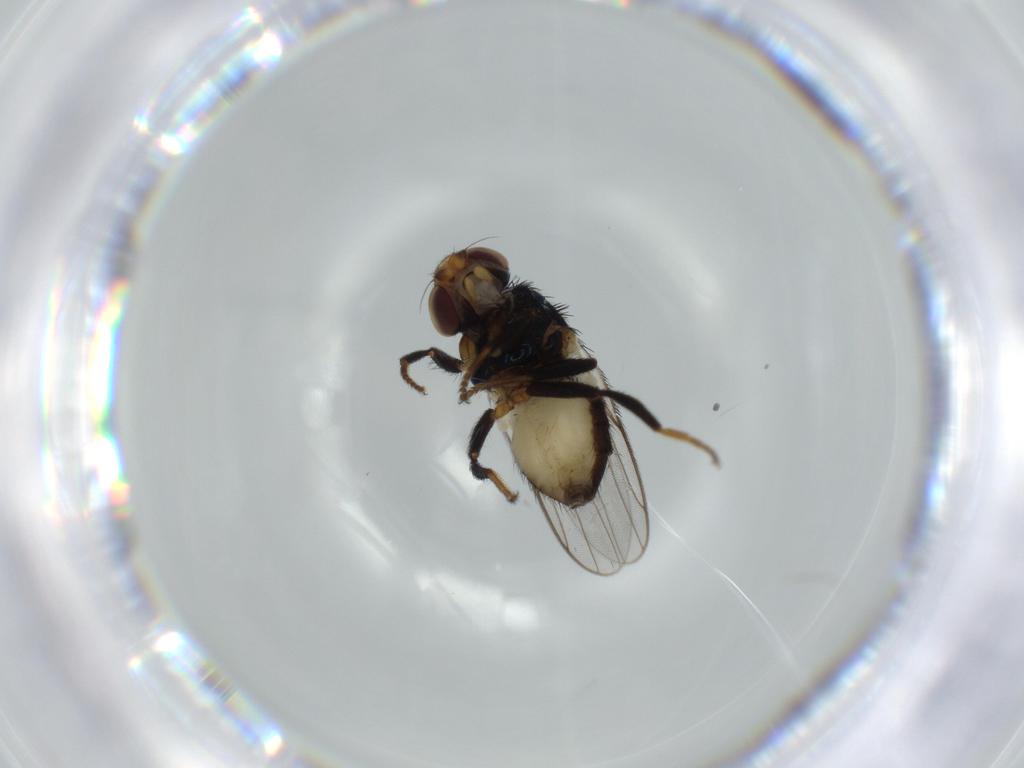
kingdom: Animalia
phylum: Arthropoda
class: Insecta
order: Diptera
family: Chloropidae
